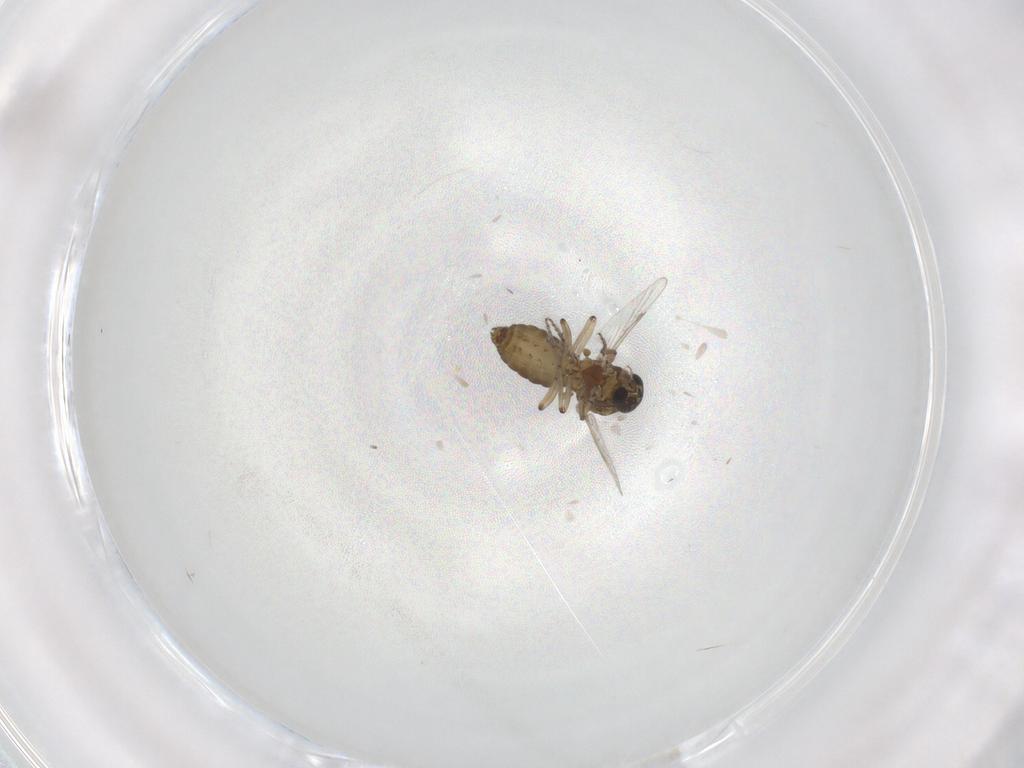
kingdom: Animalia
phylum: Arthropoda
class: Insecta
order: Diptera
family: Ceratopogonidae
